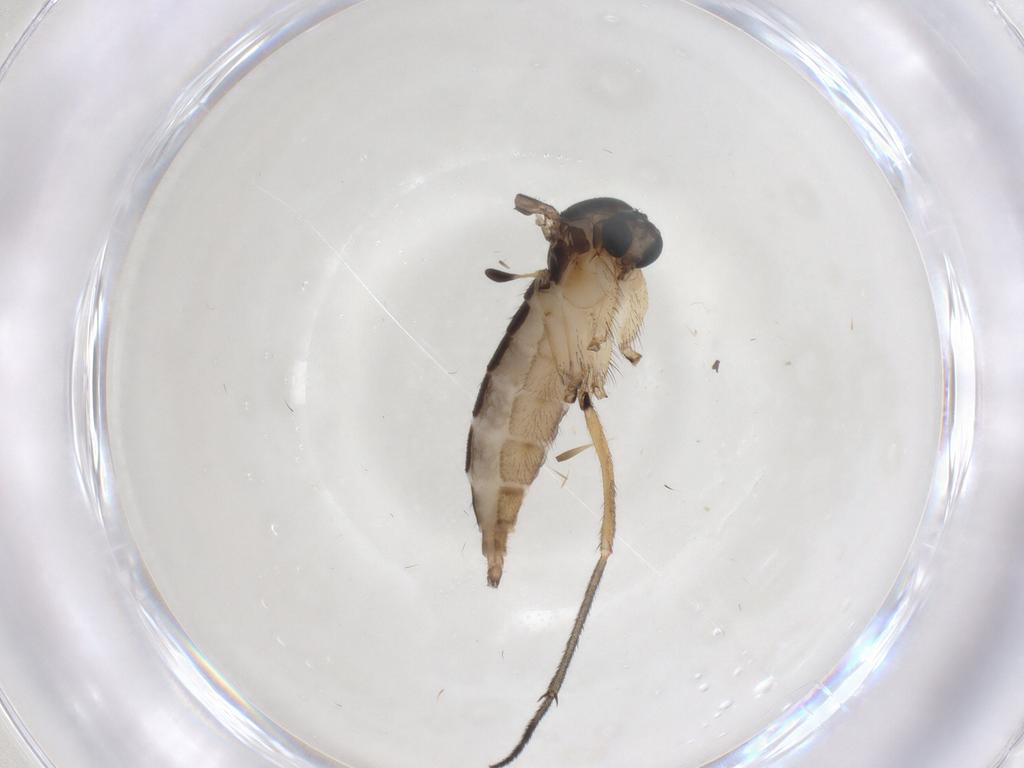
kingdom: Animalia
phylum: Arthropoda
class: Insecta
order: Diptera
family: Sciaridae
